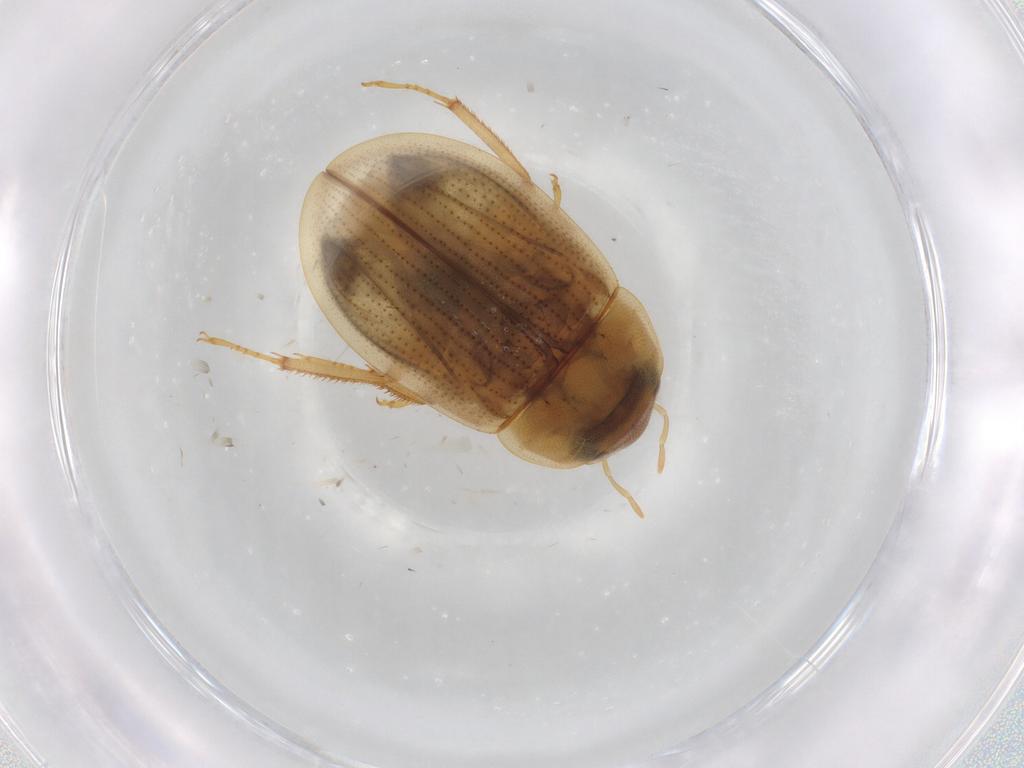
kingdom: Animalia
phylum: Arthropoda
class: Insecta
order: Coleoptera
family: Hydrophilidae
